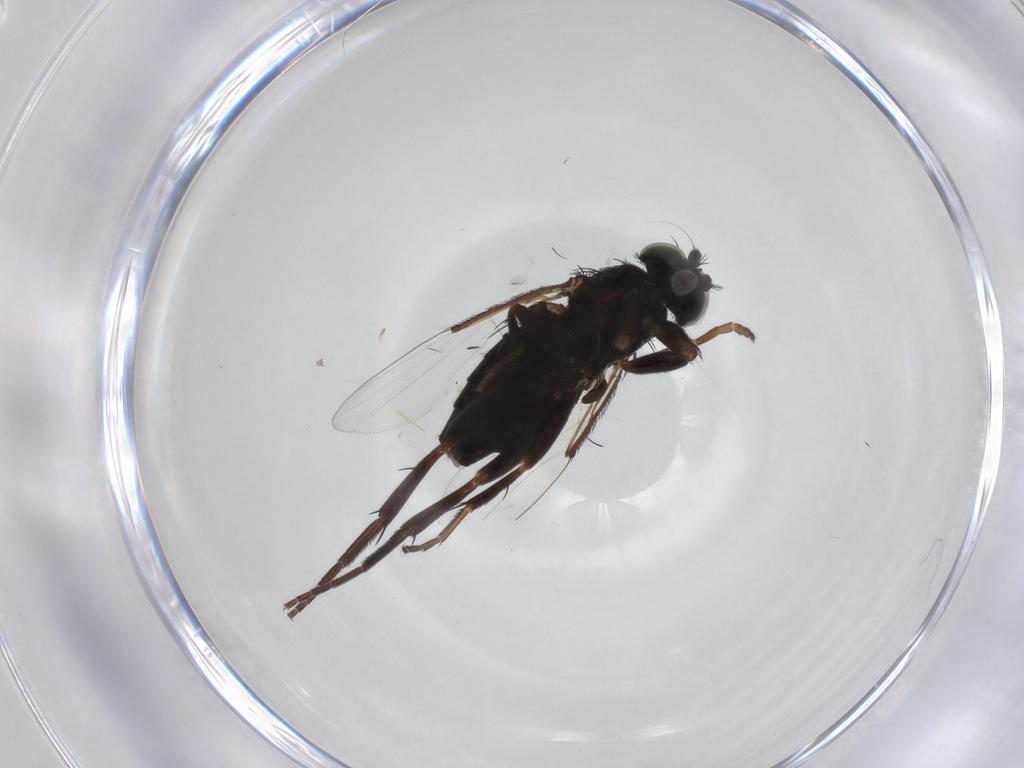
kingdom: Animalia
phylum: Arthropoda
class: Insecta
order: Diptera
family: Phoridae
